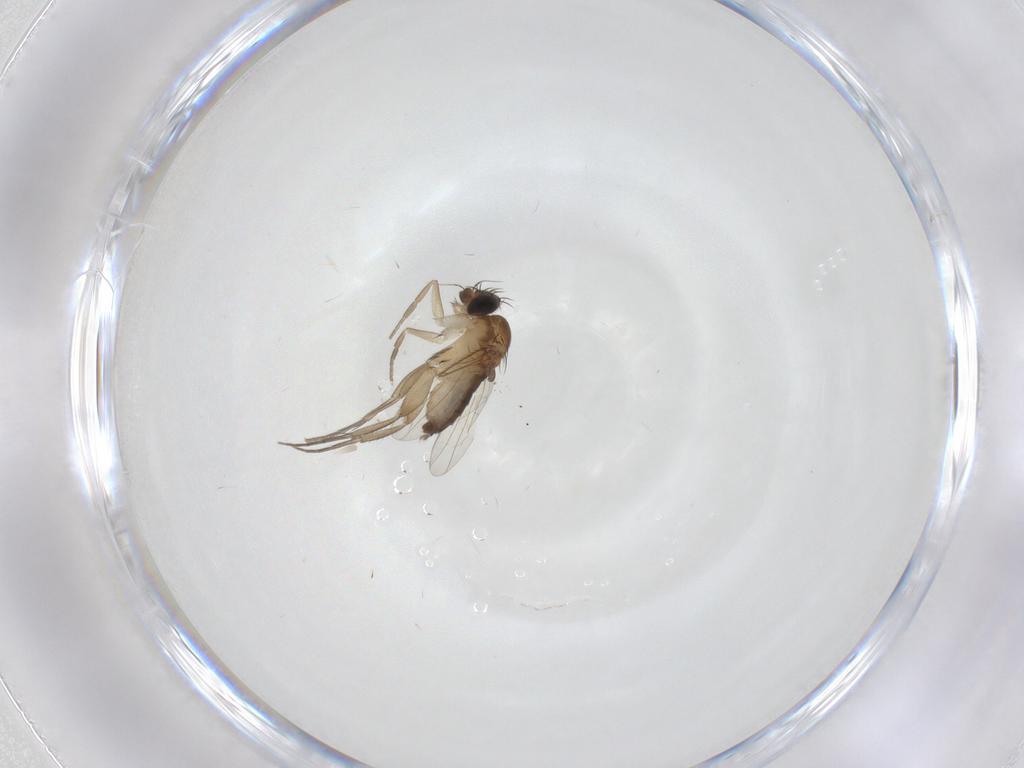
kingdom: Animalia
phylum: Arthropoda
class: Insecta
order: Diptera
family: Phoridae
